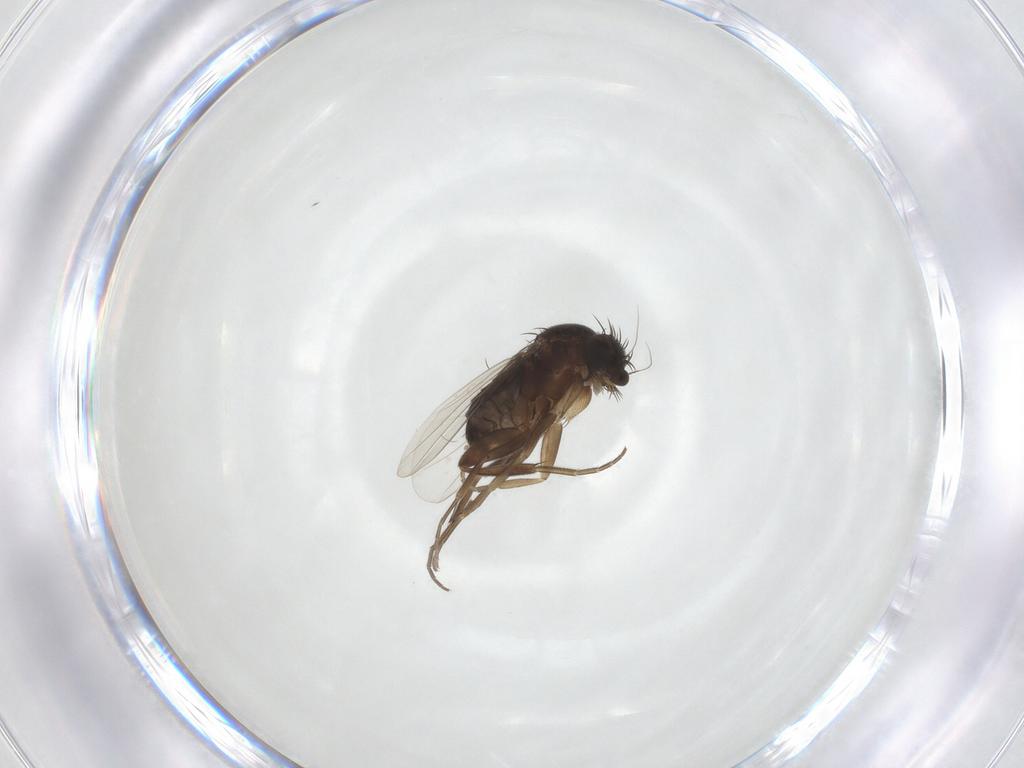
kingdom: Animalia
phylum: Arthropoda
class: Insecta
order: Diptera
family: Phoridae
